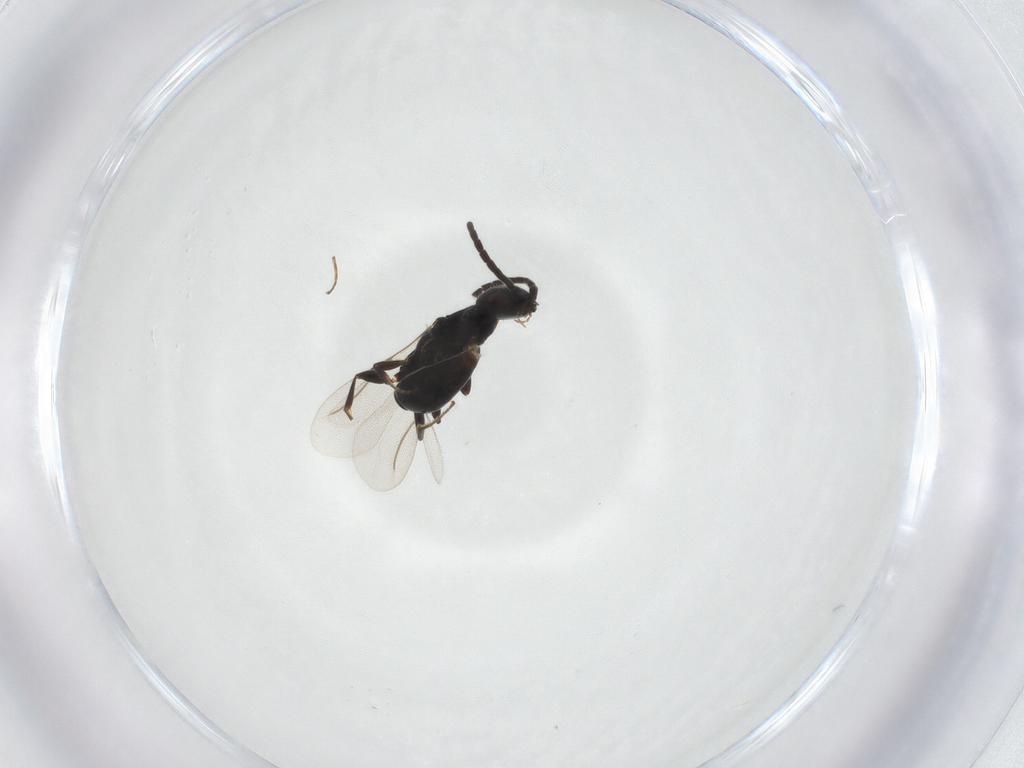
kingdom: Animalia
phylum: Arthropoda
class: Insecta
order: Hymenoptera
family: Bethylidae
